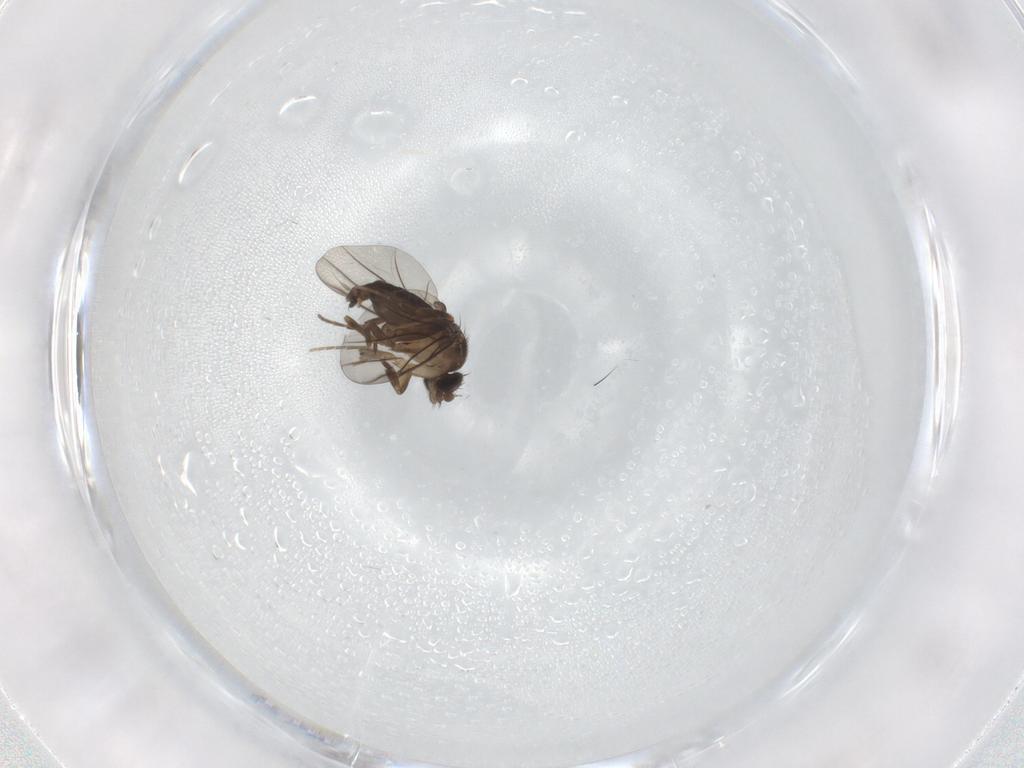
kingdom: Animalia
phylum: Arthropoda
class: Insecta
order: Diptera
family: Phoridae
